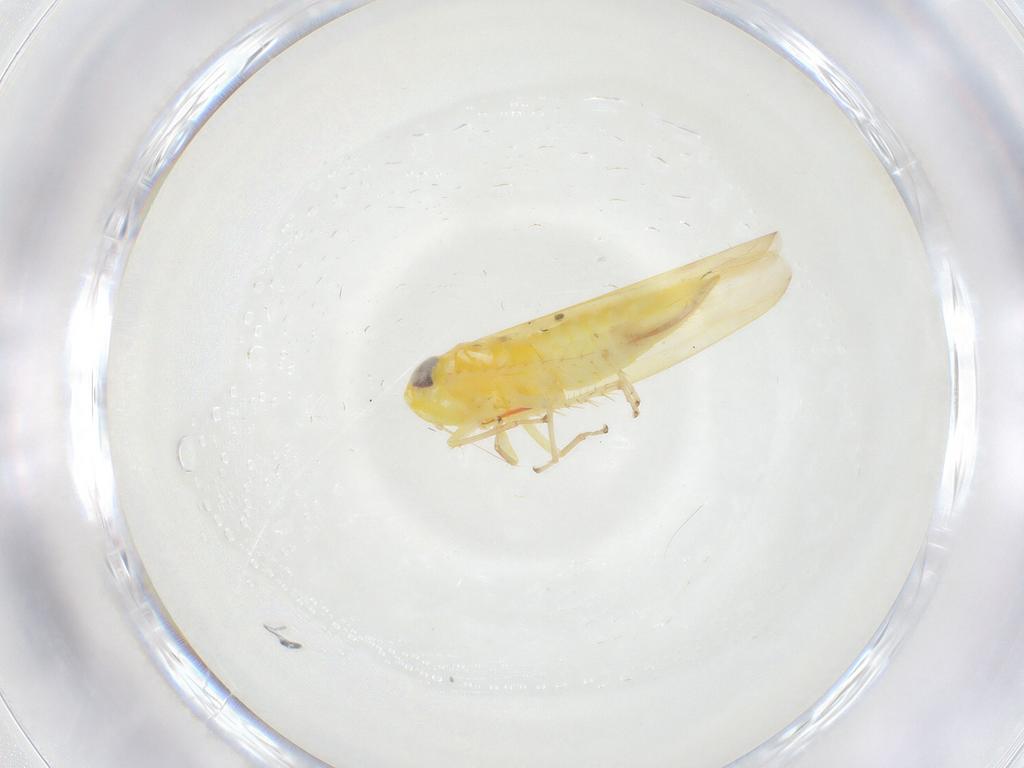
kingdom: Animalia
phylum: Arthropoda
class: Insecta
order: Hemiptera
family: Cicadellidae
